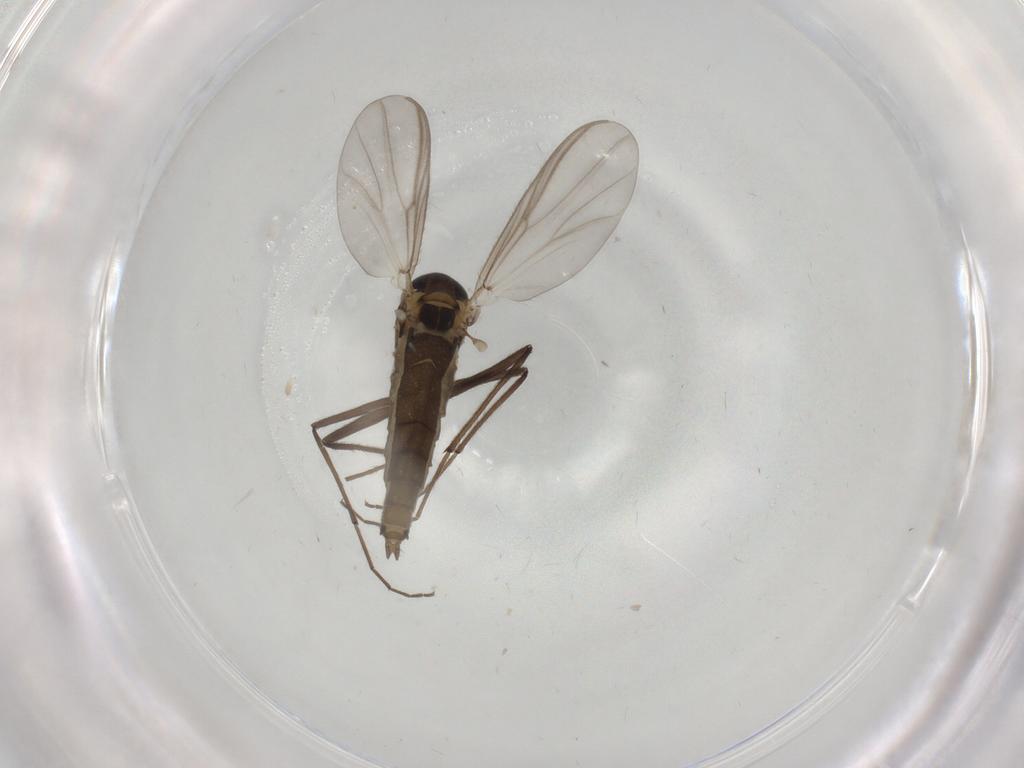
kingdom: Animalia
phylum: Arthropoda
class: Insecta
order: Diptera
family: Chironomidae
